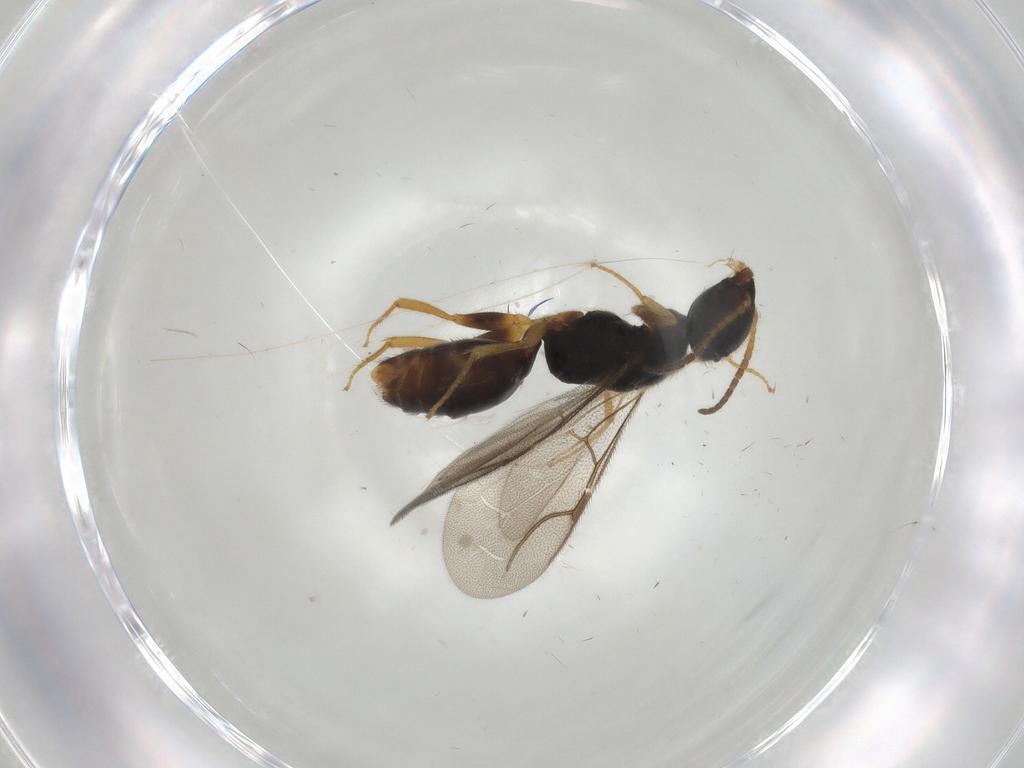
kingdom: Animalia
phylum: Arthropoda
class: Insecta
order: Hymenoptera
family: Bethylidae
